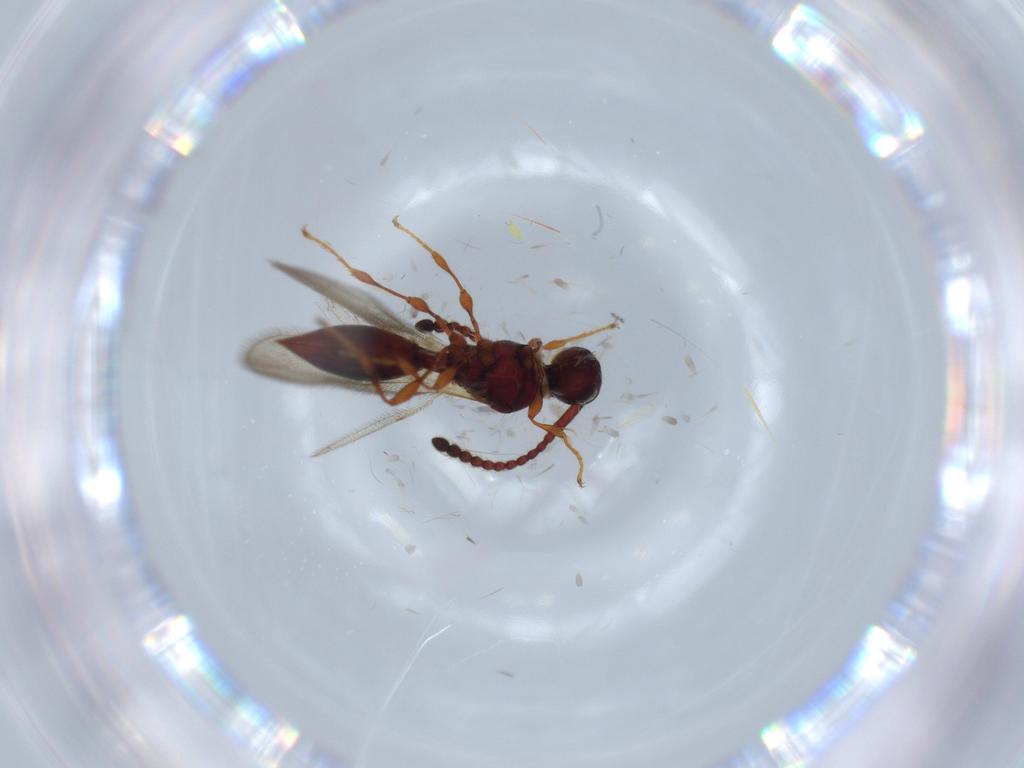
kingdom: Animalia
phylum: Arthropoda
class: Insecta
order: Hymenoptera
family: Diapriidae
